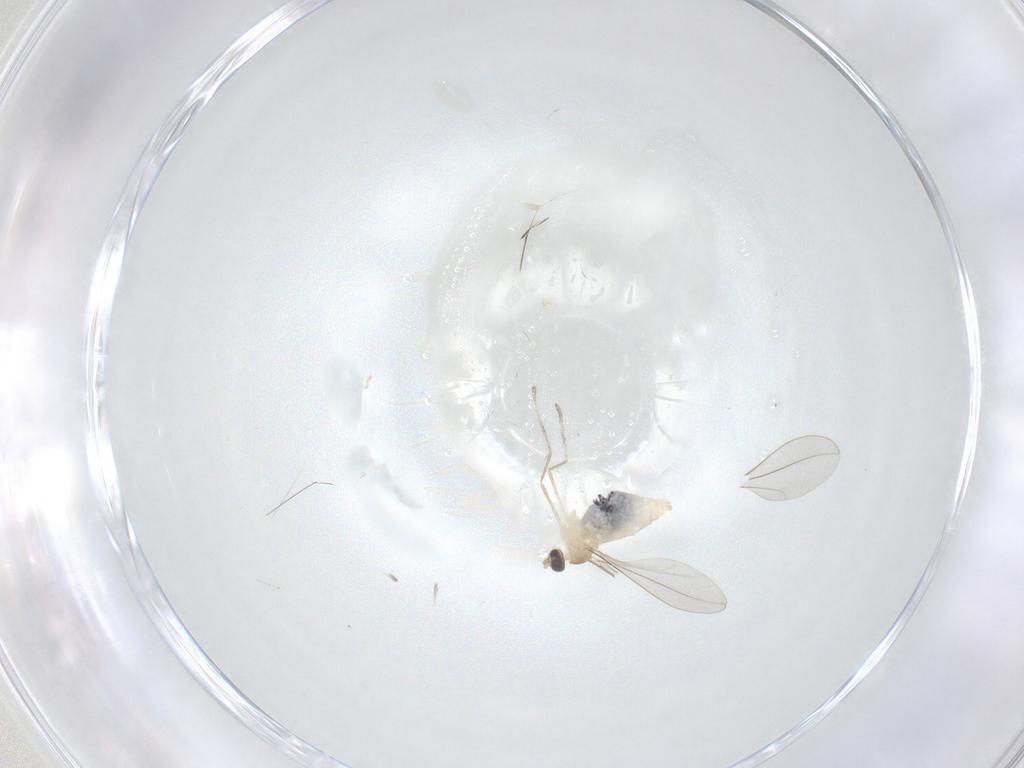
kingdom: Animalia
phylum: Arthropoda
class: Insecta
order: Diptera
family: Cecidomyiidae
